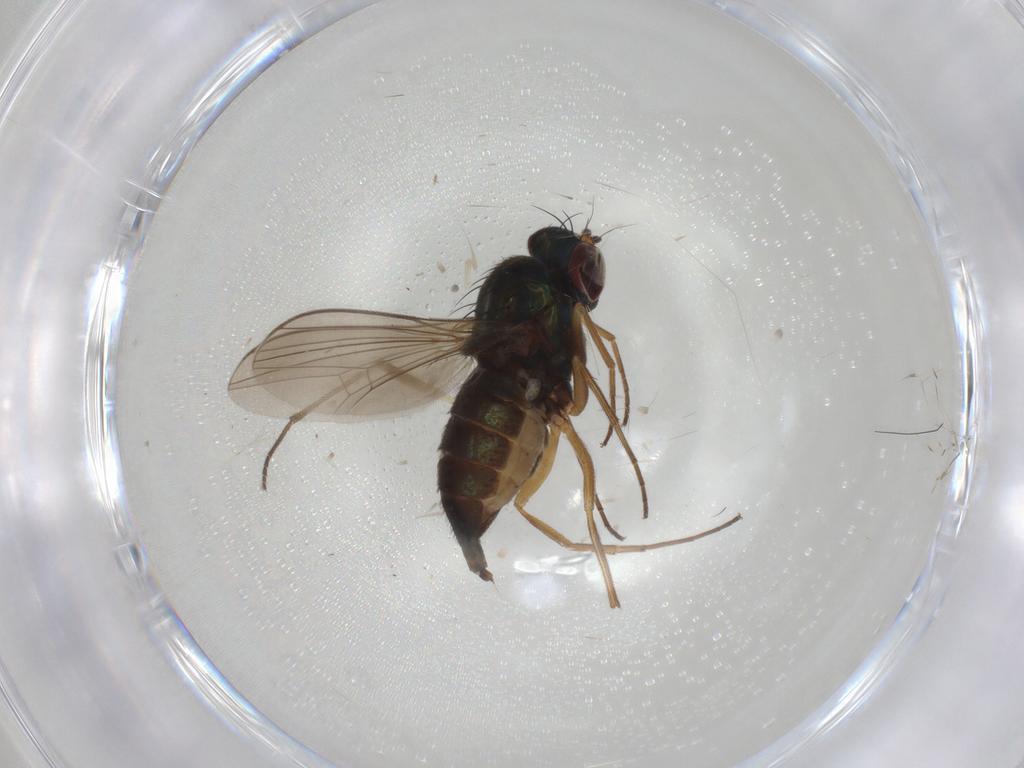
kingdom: Animalia
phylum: Arthropoda
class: Insecta
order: Diptera
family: Dolichopodidae
